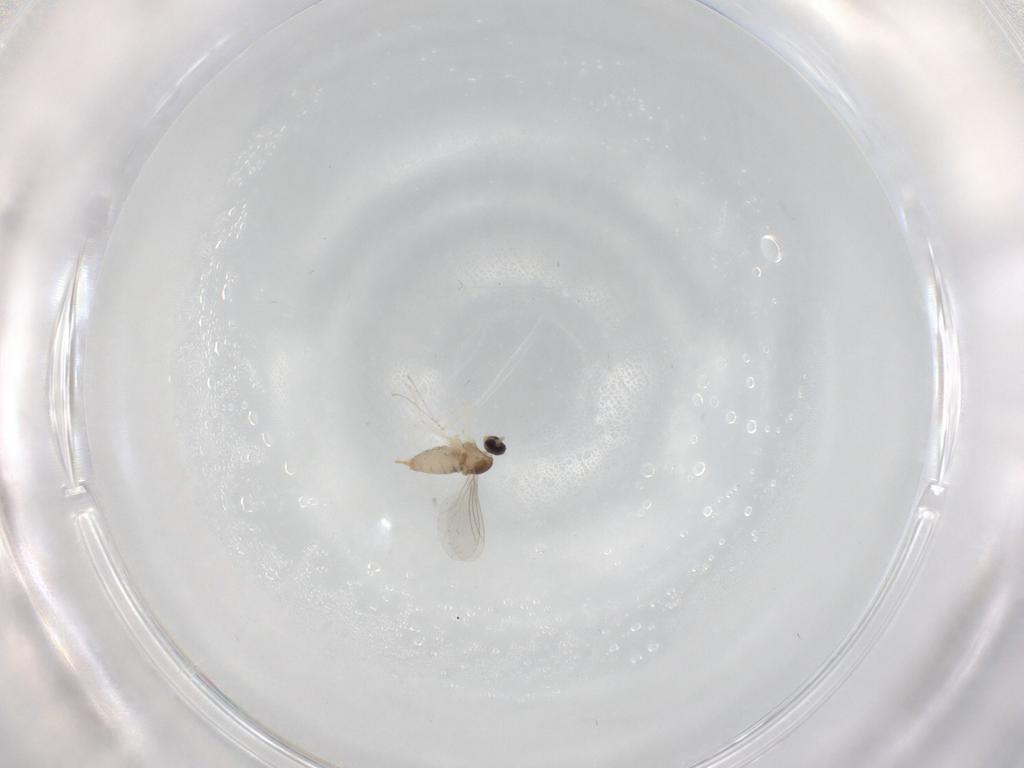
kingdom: Animalia
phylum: Arthropoda
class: Insecta
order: Diptera
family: Cecidomyiidae
